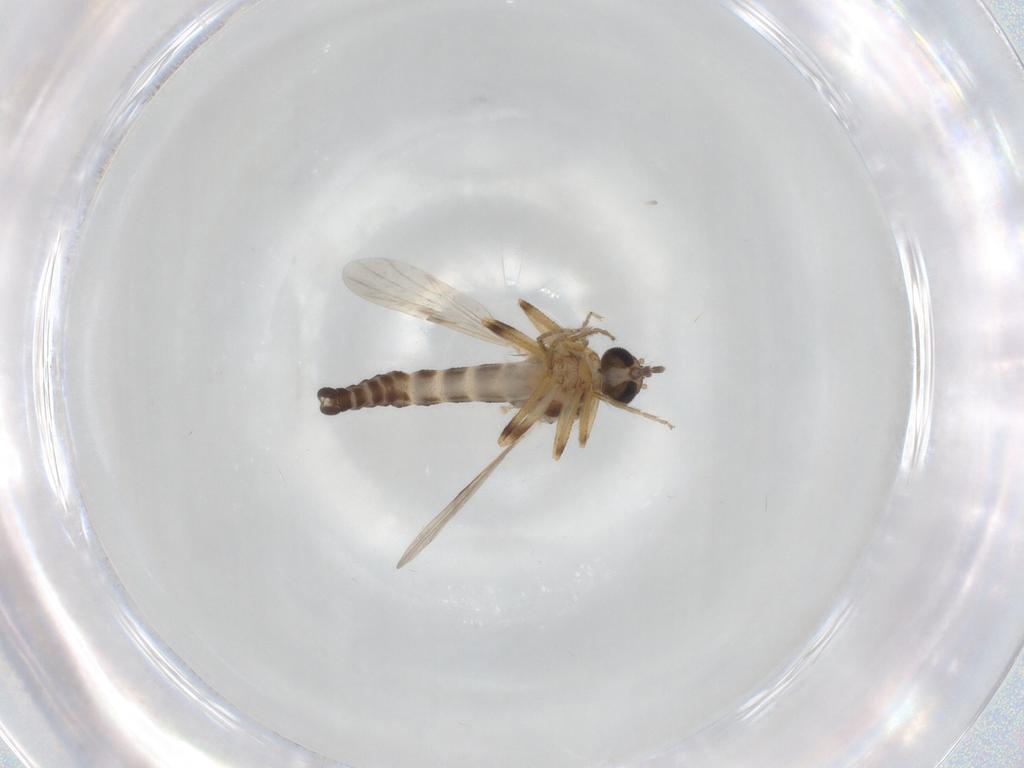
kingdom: Animalia
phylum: Arthropoda
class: Insecta
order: Diptera
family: Ceratopogonidae
